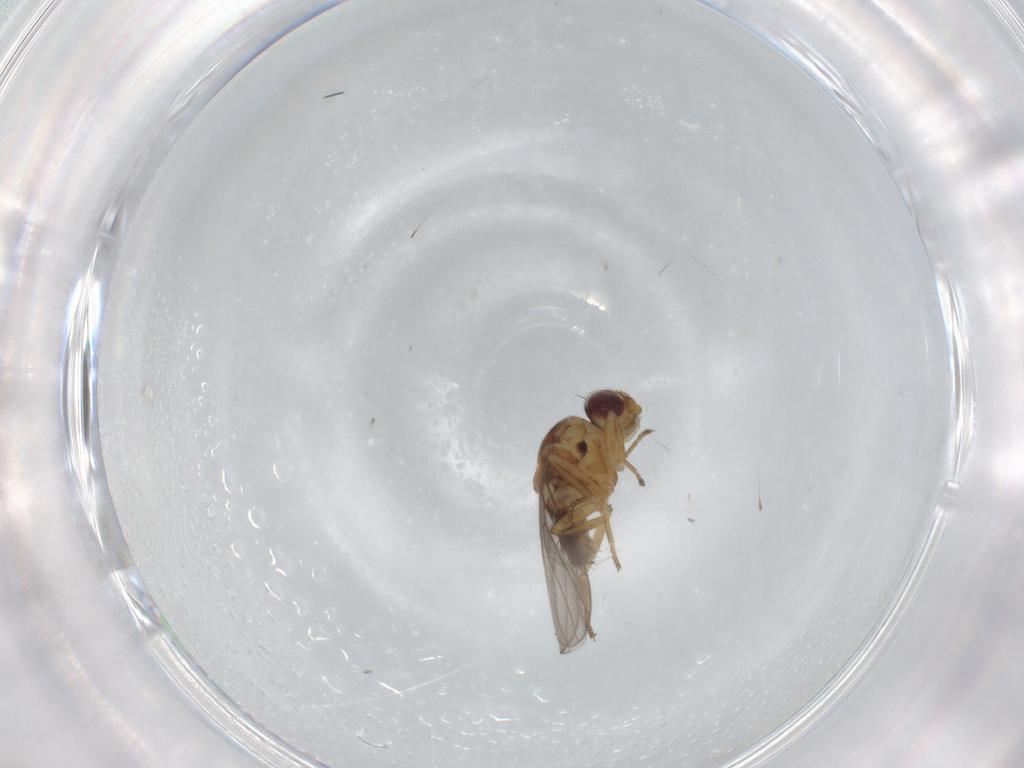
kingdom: Animalia
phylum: Arthropoda
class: Insecta
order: Diptera
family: Chloropidae
